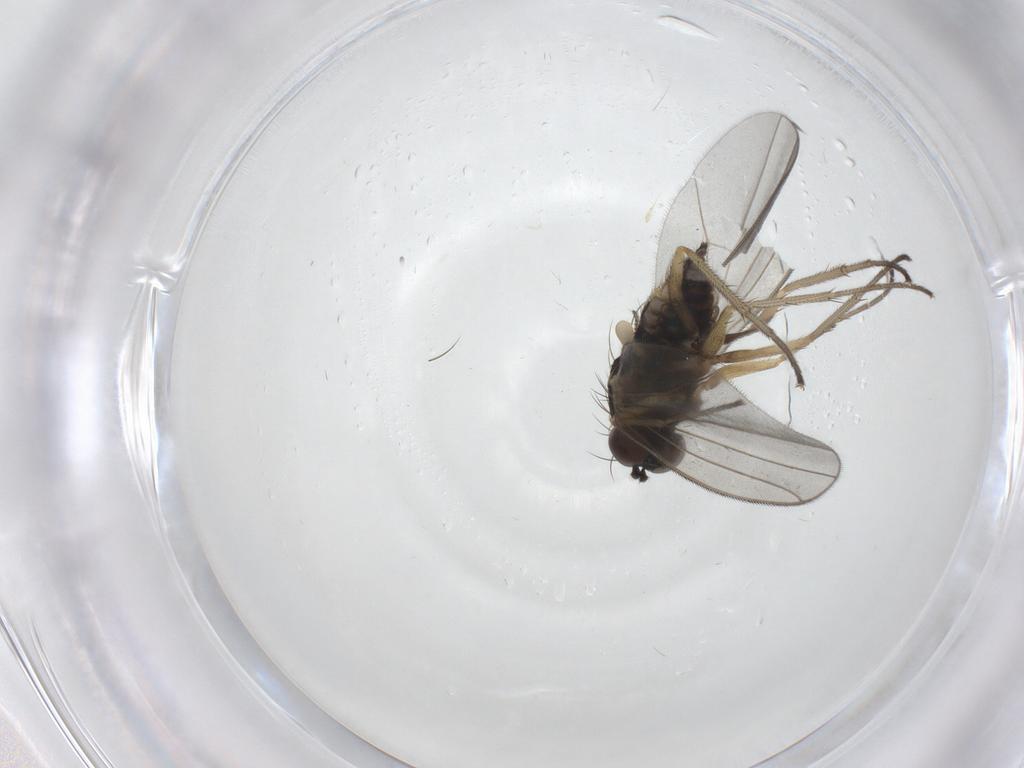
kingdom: Animalia
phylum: Arthropoda
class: Insecta
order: Diptera
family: Sciaridae
